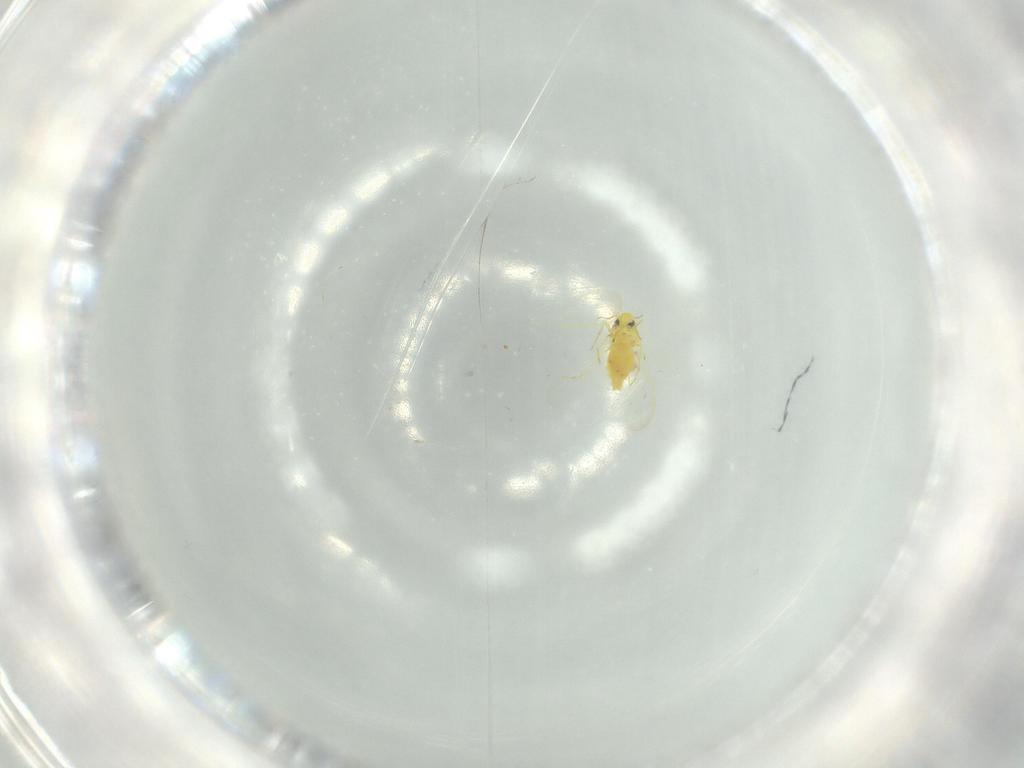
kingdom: Animalia
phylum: Arthropoda
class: Insecta
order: Hemiptera
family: Aleyrodidae
